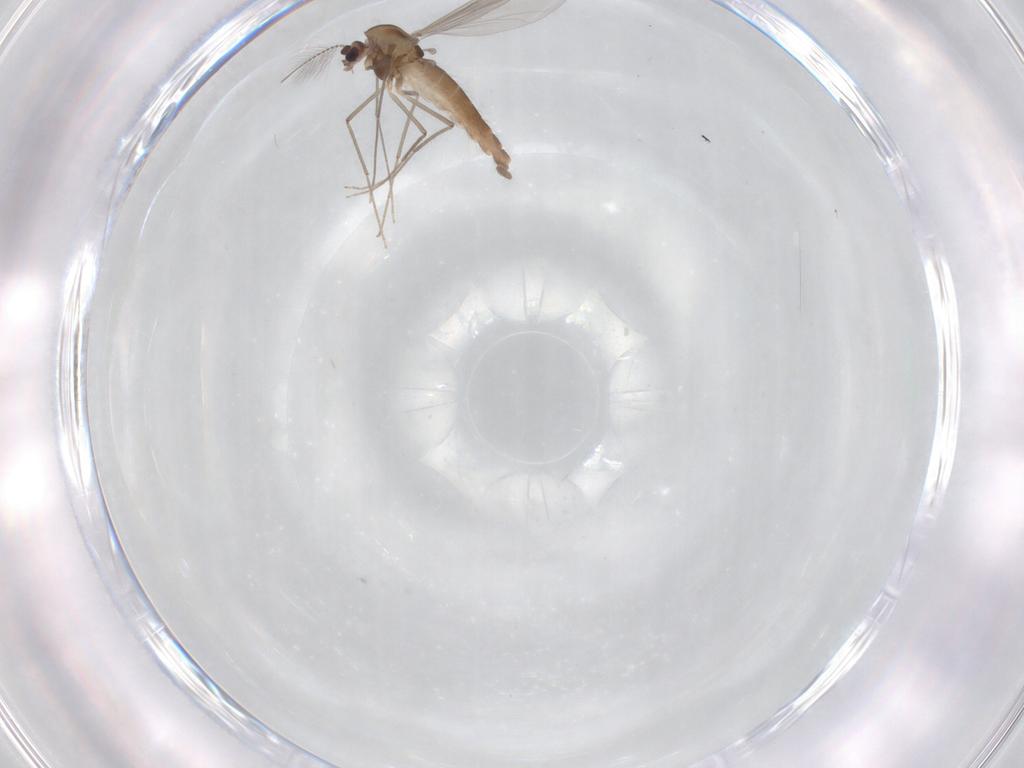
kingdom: Animalia
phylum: Arthropoda
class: Insecta
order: Diptera
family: Chironomidae
